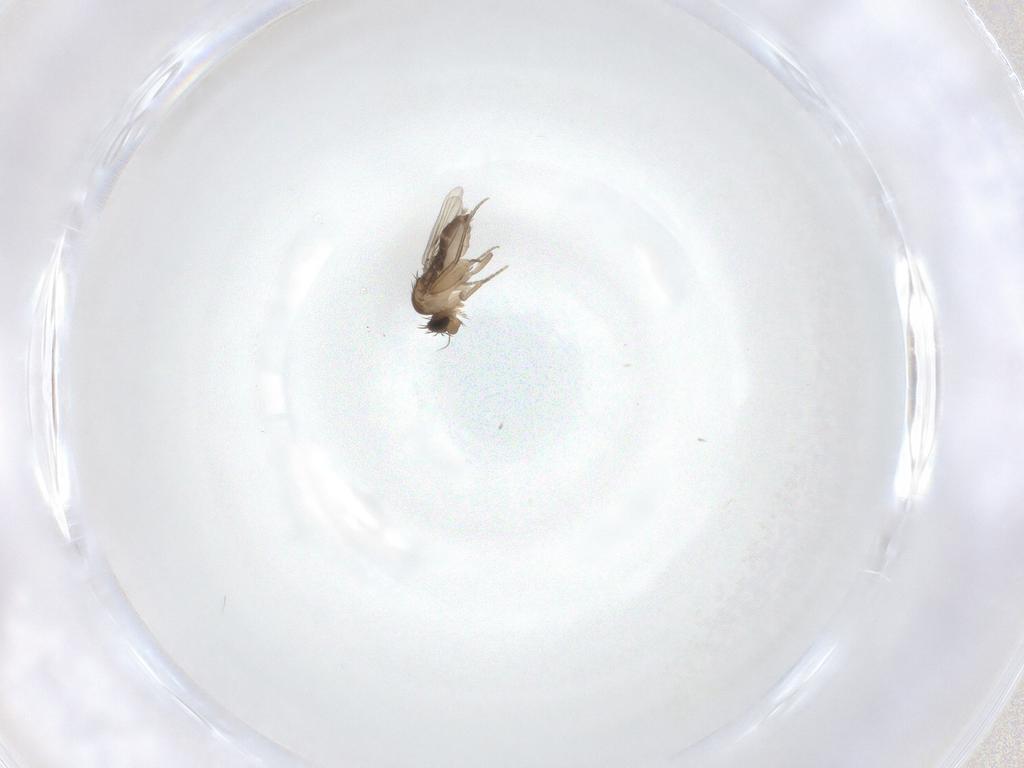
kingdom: Animalia
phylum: Arthropoda
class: Insecta
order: Diptera
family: Phoridae
